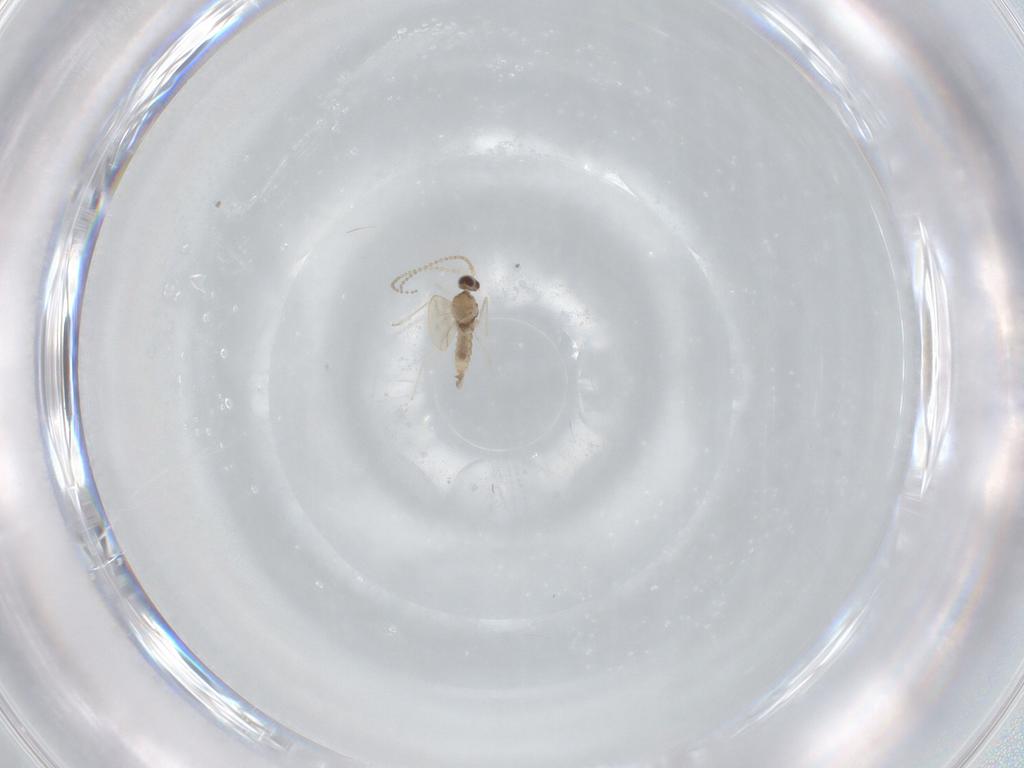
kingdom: Animalia
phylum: Arthropoda
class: Insecta
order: Diptera
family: Cecidomyiidae
